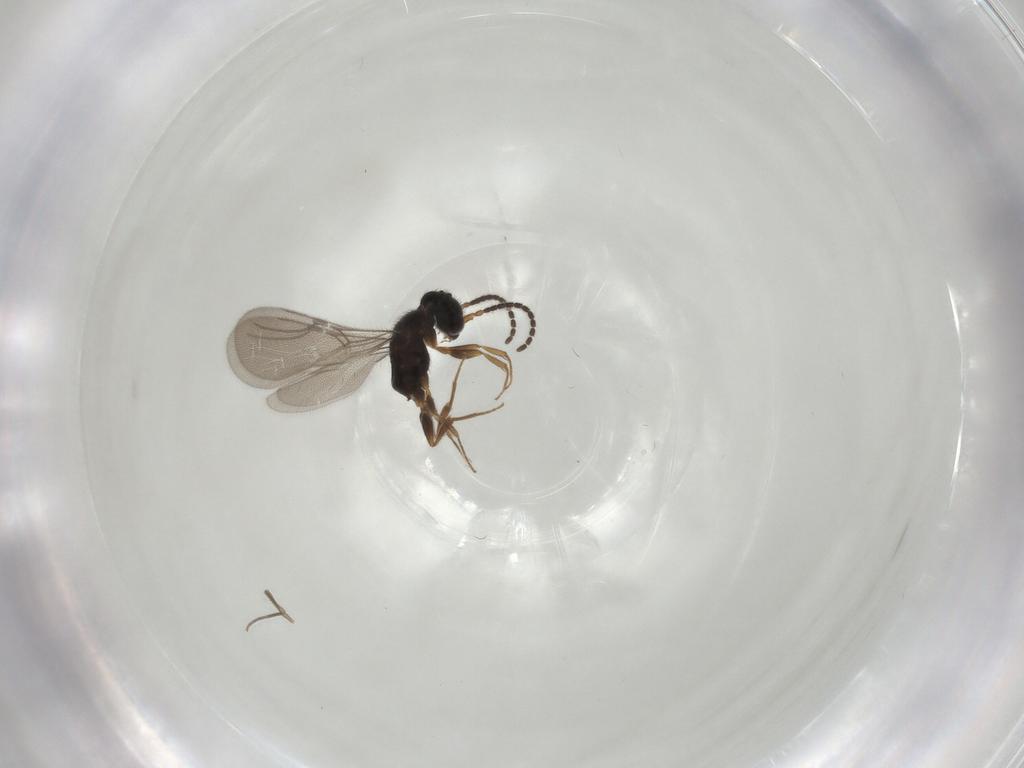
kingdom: Animalia
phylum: Arthropoda
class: Insecta
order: Hymenoptera
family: Bethylidae
